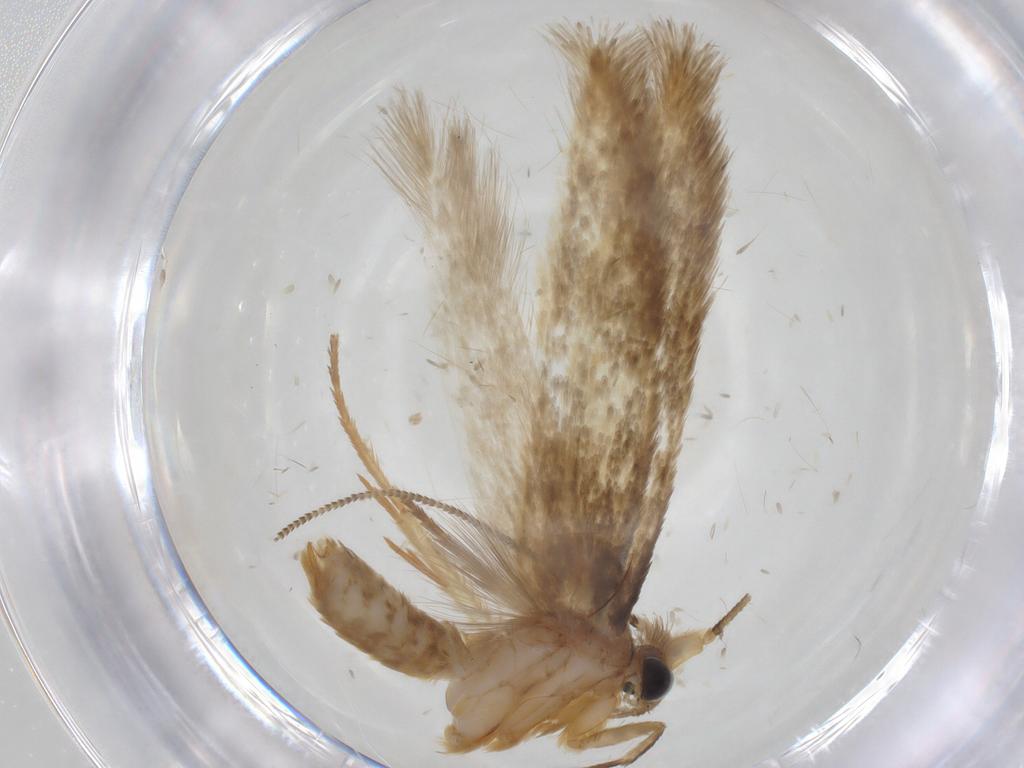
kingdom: Animalia
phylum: Arthropoda
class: Insecta
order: Lepidoptera
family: Nepticulidae
